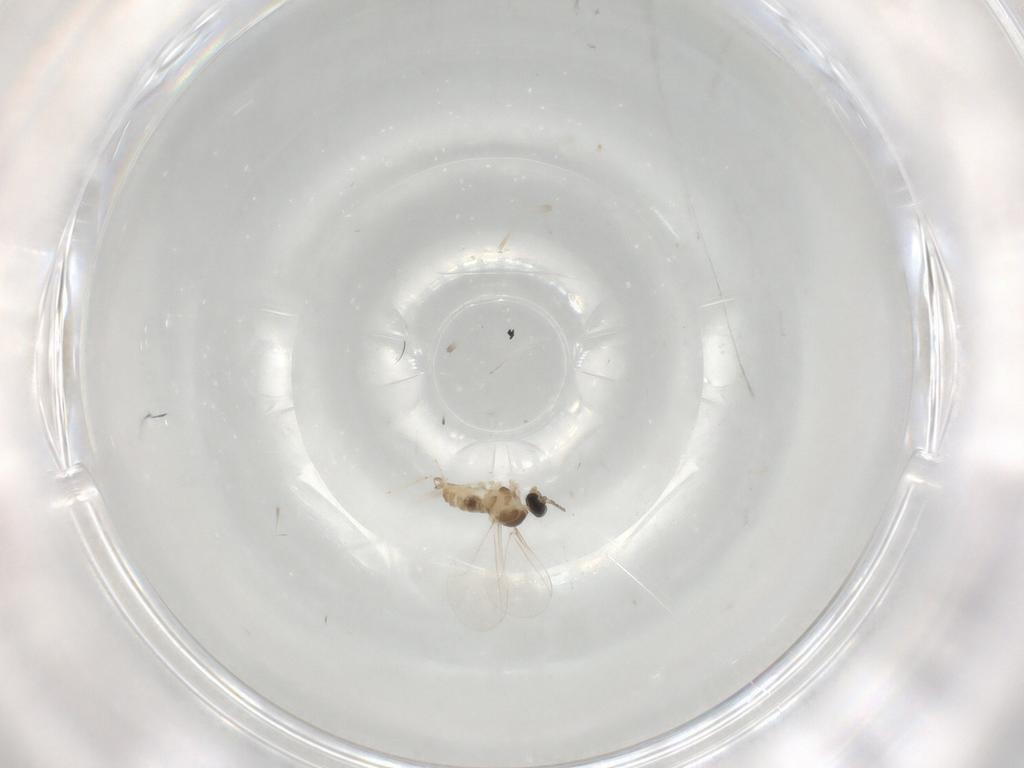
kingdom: Animalia
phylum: Arthropoda
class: Insecta
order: Diptera
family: Cecidomyiidae
